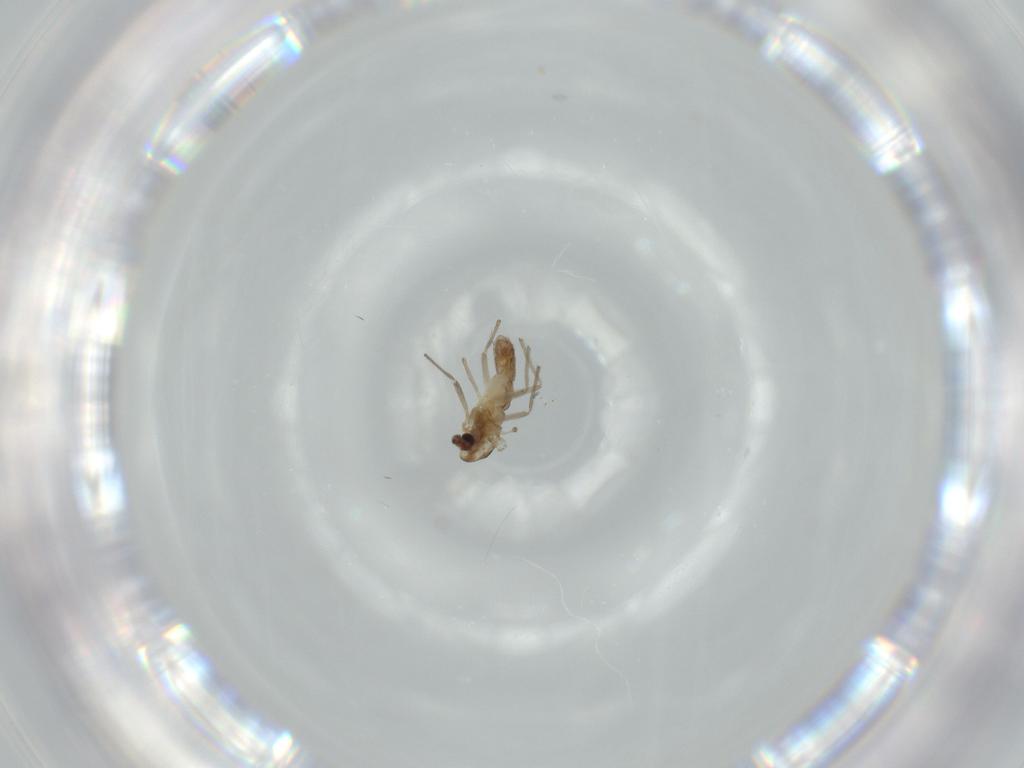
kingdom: Animalia
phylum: Arthropoda
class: Insecta
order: Diptera
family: Chironomidae
